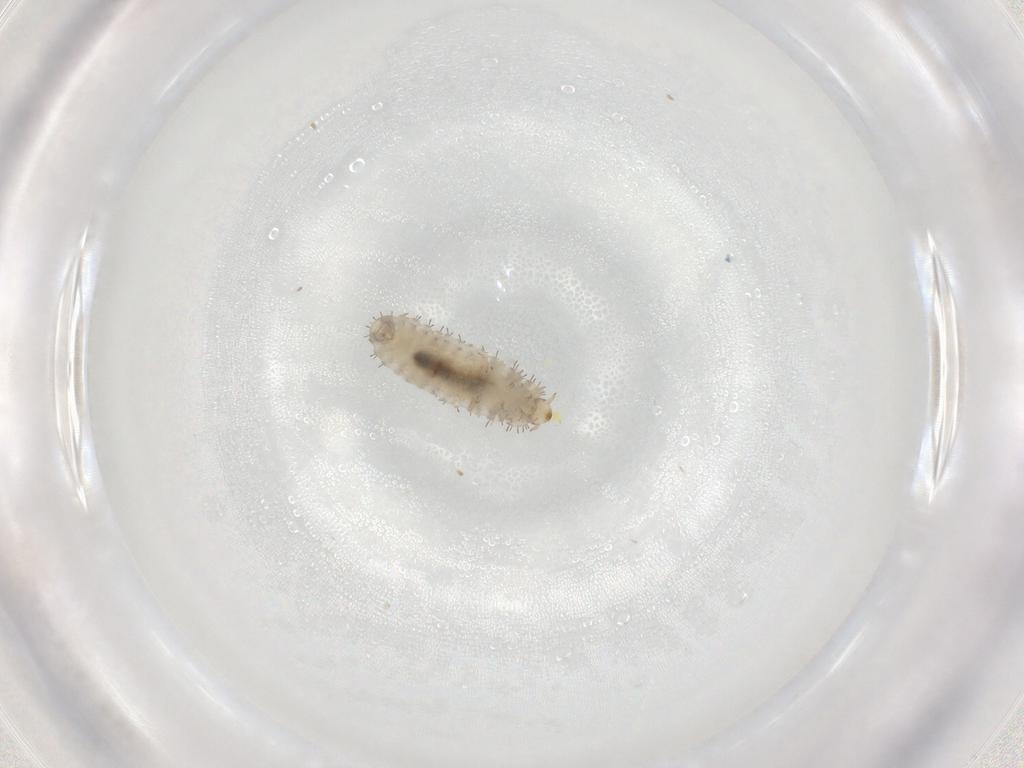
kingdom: Animalia
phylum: Arthropoda
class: Insecta
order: Coleoptera
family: Corylophidae
